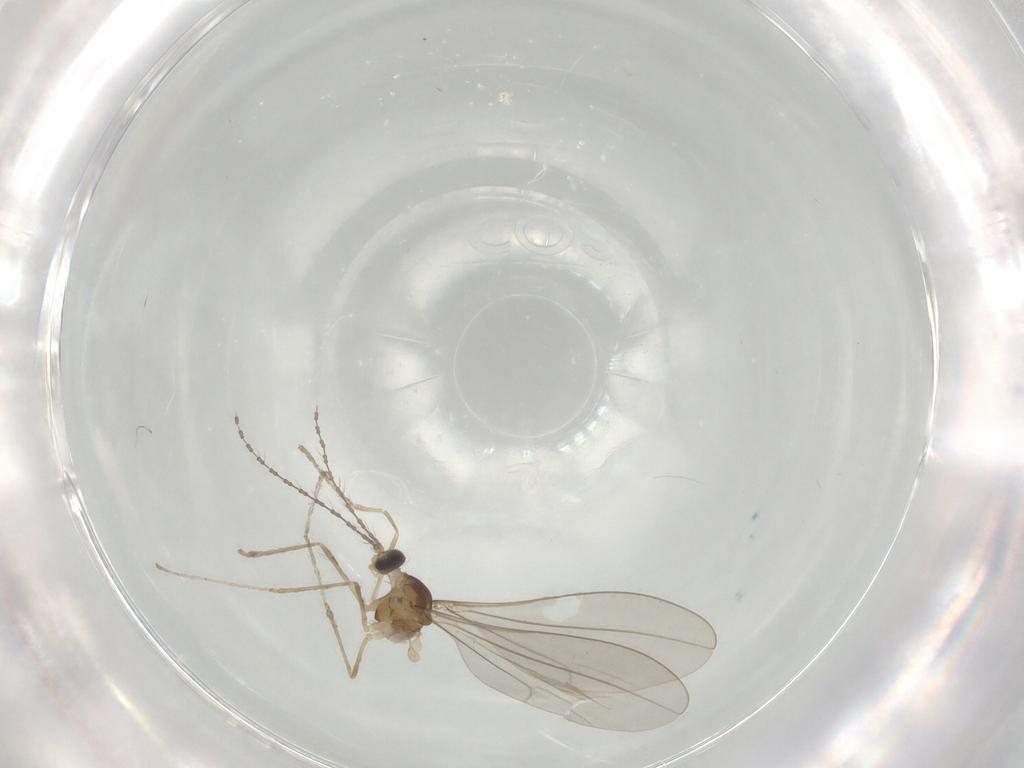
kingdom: Animalia
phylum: Arthropoda
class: Insecta
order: Diptera
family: Cecidomyiidae
